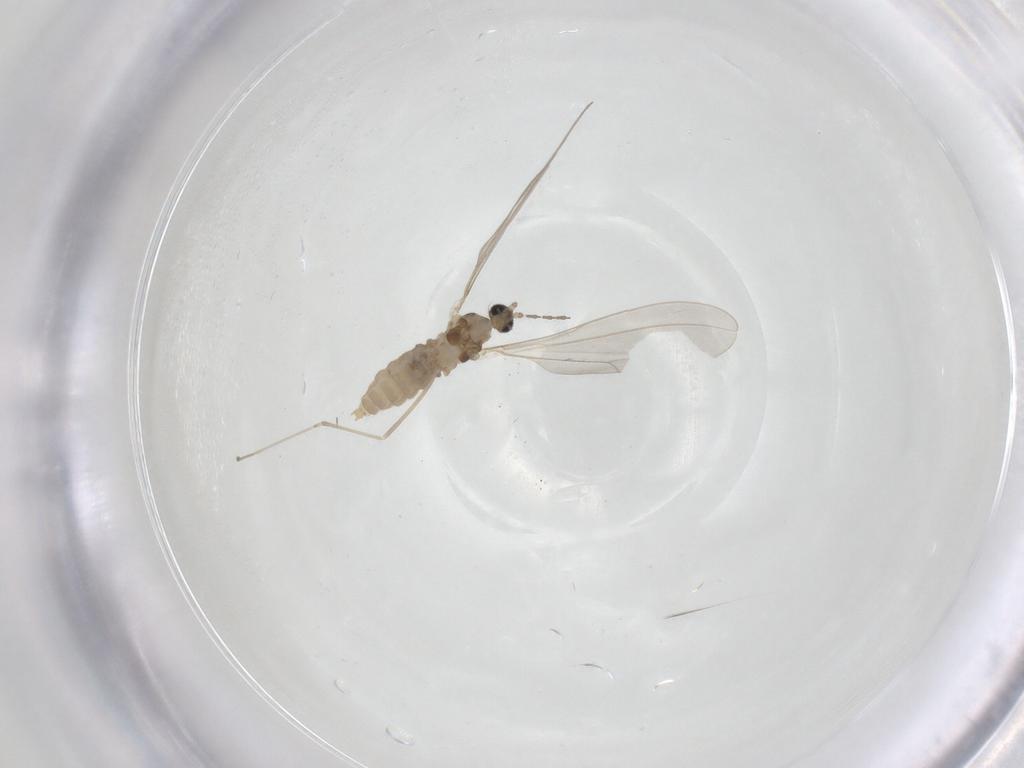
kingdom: Animalia
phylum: Arthropoda
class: Insecta
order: Diptera
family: Cecidomyiidae
